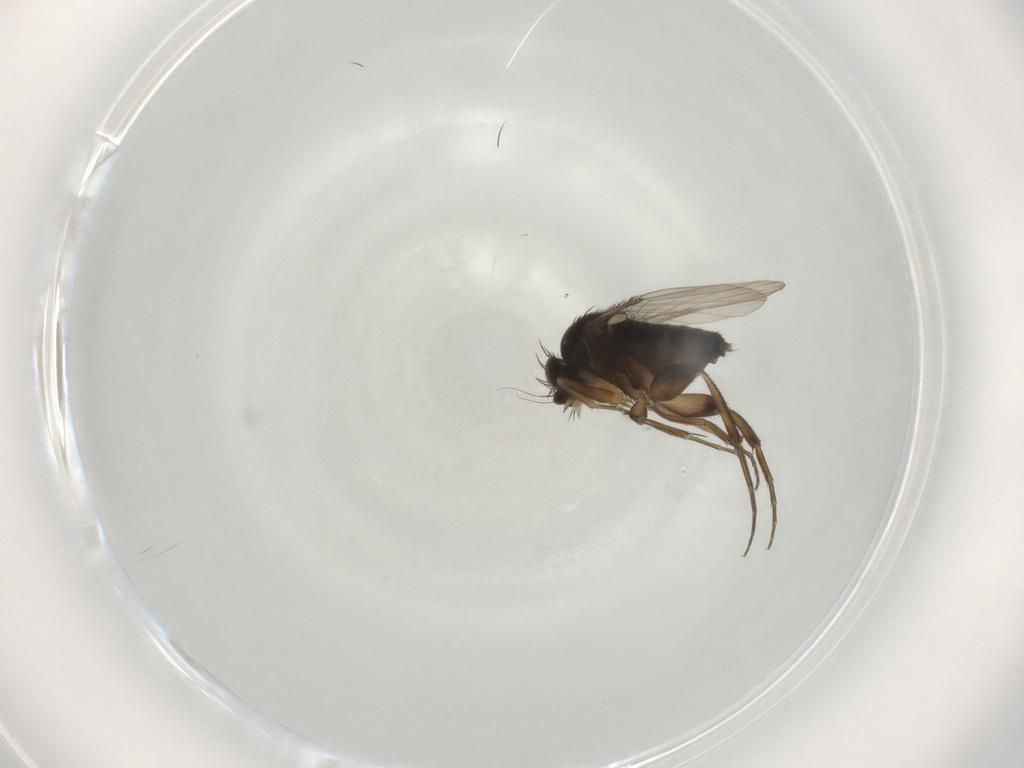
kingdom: Animalia
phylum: Arthropoda
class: Insecta
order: Diptera
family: Phoridae
